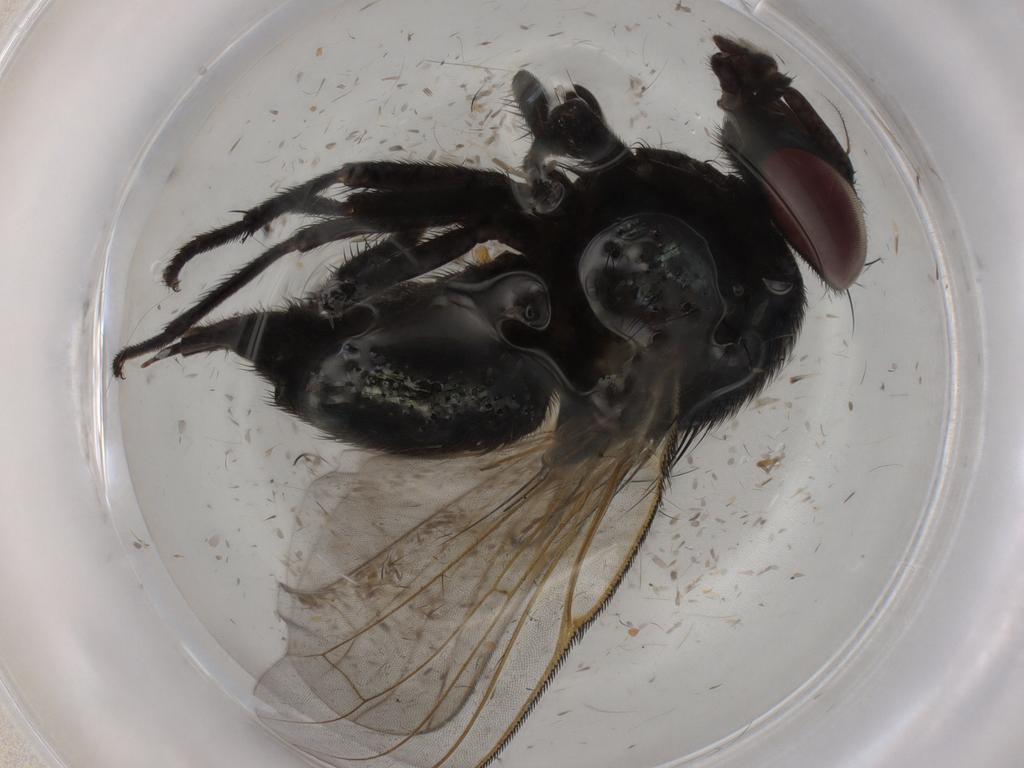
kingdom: Animalia
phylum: Arthropoda
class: Insecta
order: Diptera
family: Lonchaeidae
